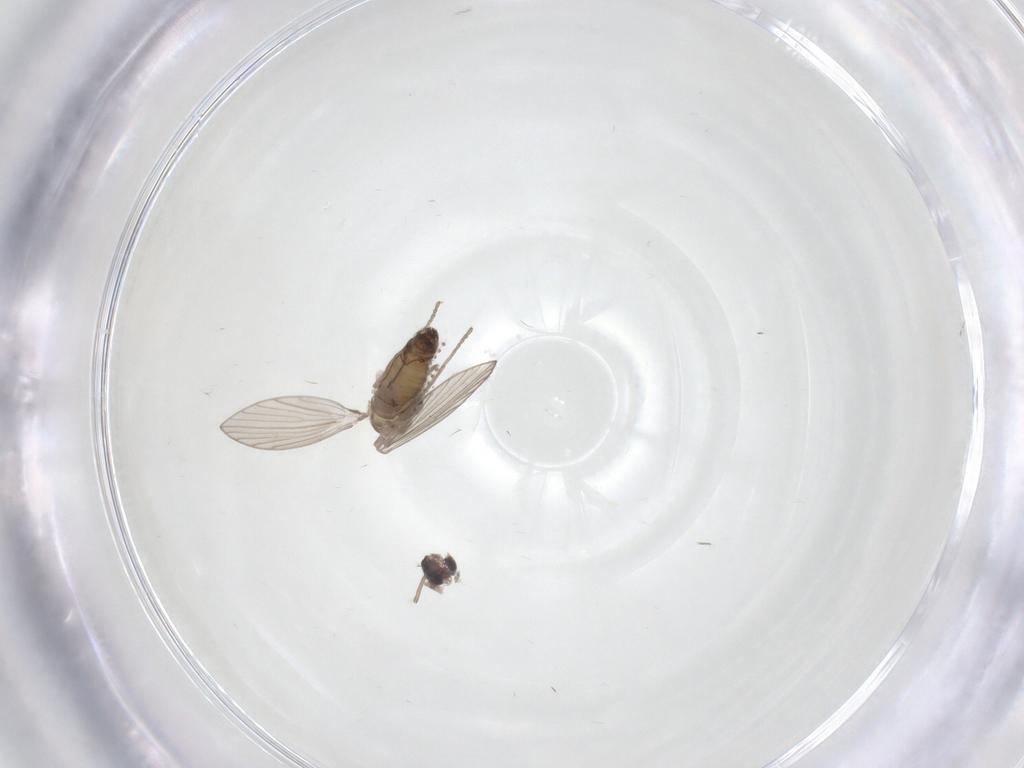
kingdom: Animalia
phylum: Arthropoda
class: Insecta
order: Diptera
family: Psychodidae
